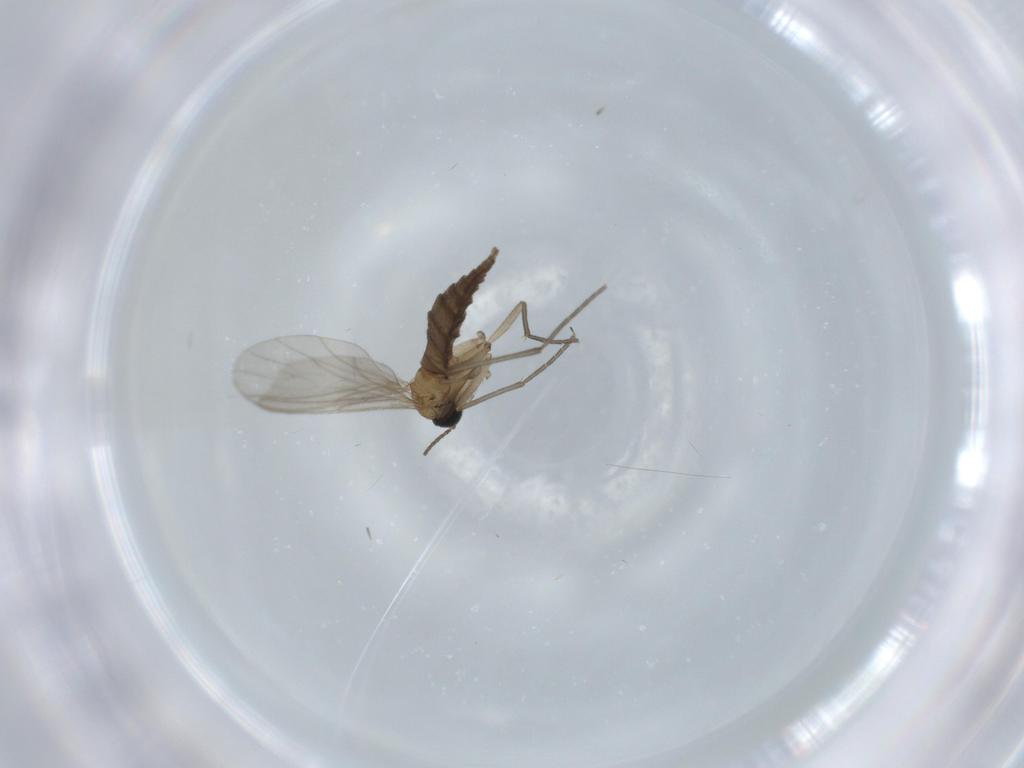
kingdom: Animalia
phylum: Arthropoda
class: Insecta
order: Diptera
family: Sciaridae
